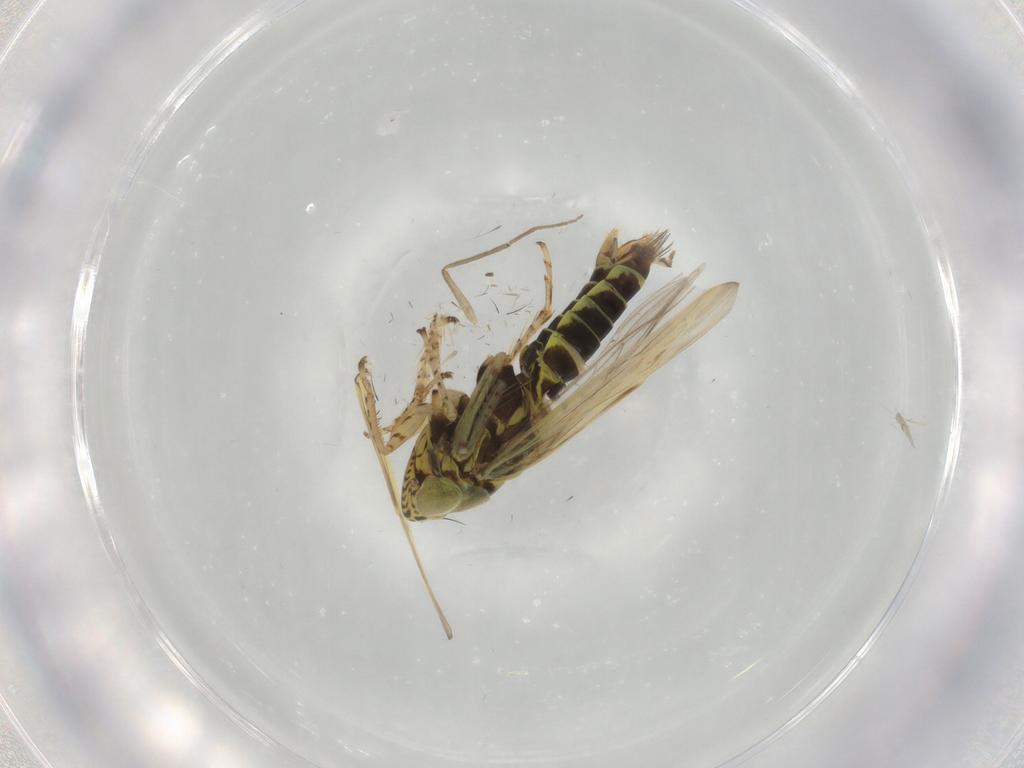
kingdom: Animalia
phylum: Arthropoda
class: Insecta
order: Hemiptera
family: Cicadellidae
